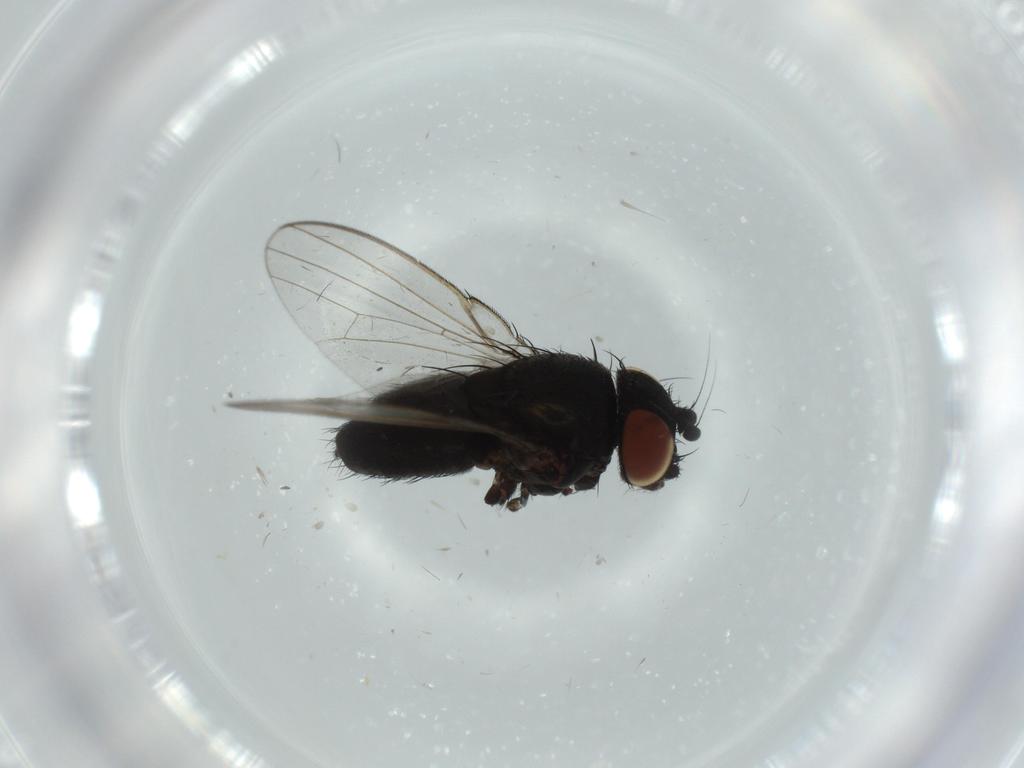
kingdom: Animalia
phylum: Arthropoda
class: Insecta
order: Diptera
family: Milichiidae
